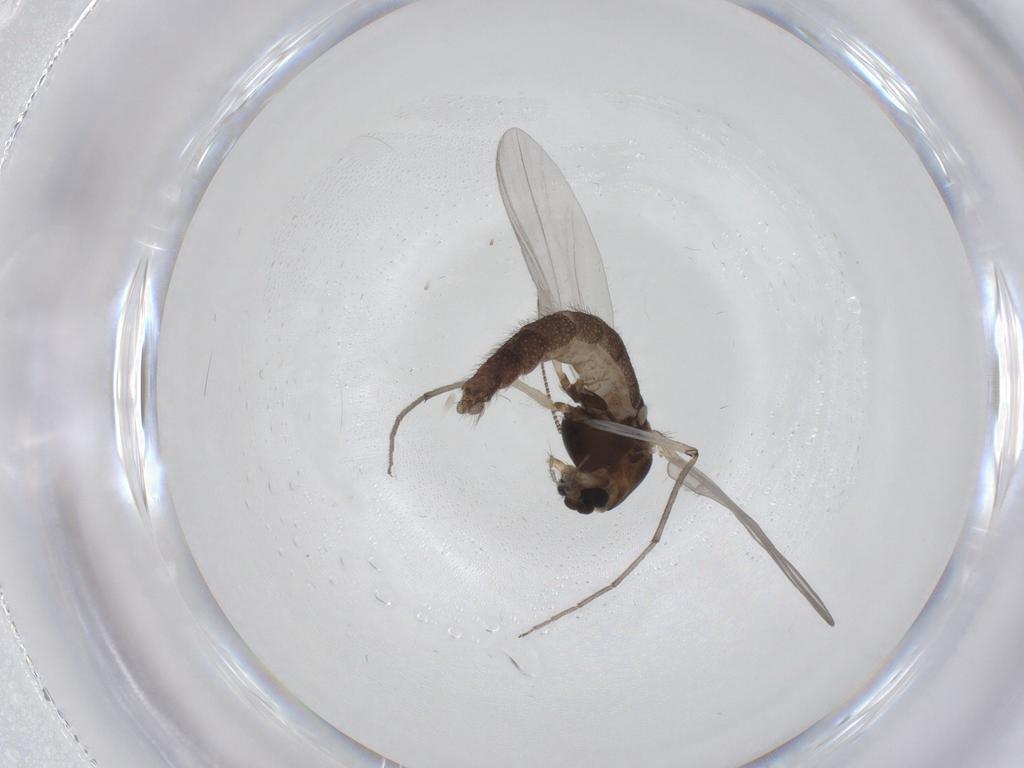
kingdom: Animalia
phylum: Arthropoda
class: Insecta
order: Diptera
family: Chironomidae
